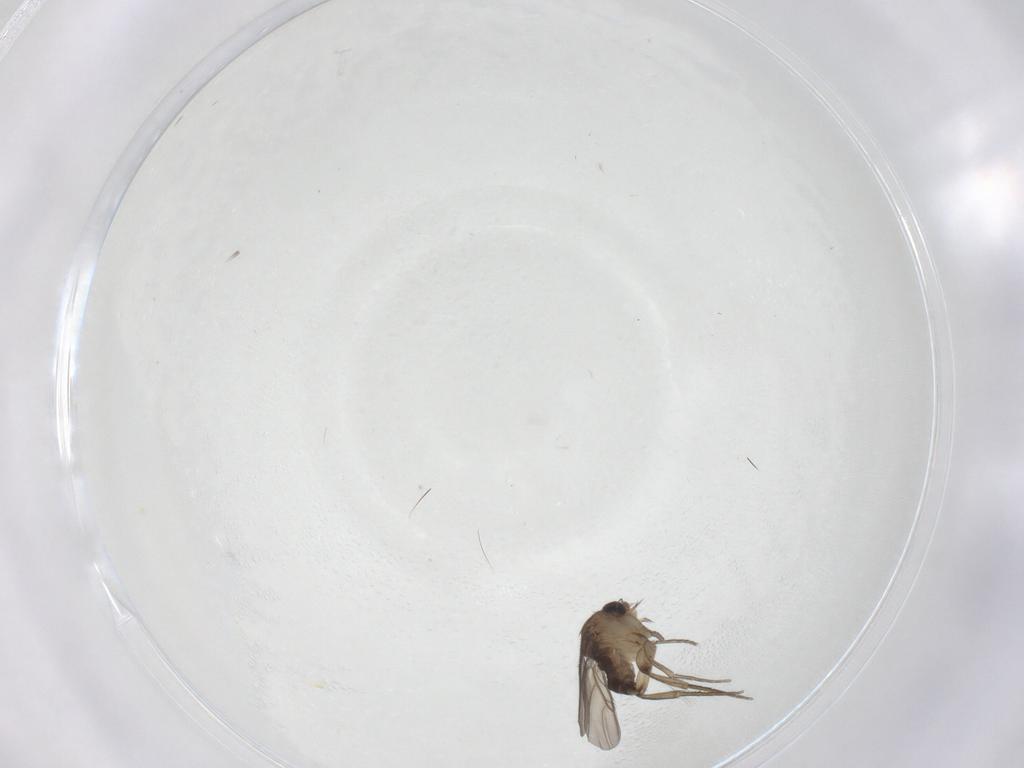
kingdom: Animalia
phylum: Arthropoda
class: Insecta
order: Diptera
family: Phoridae
